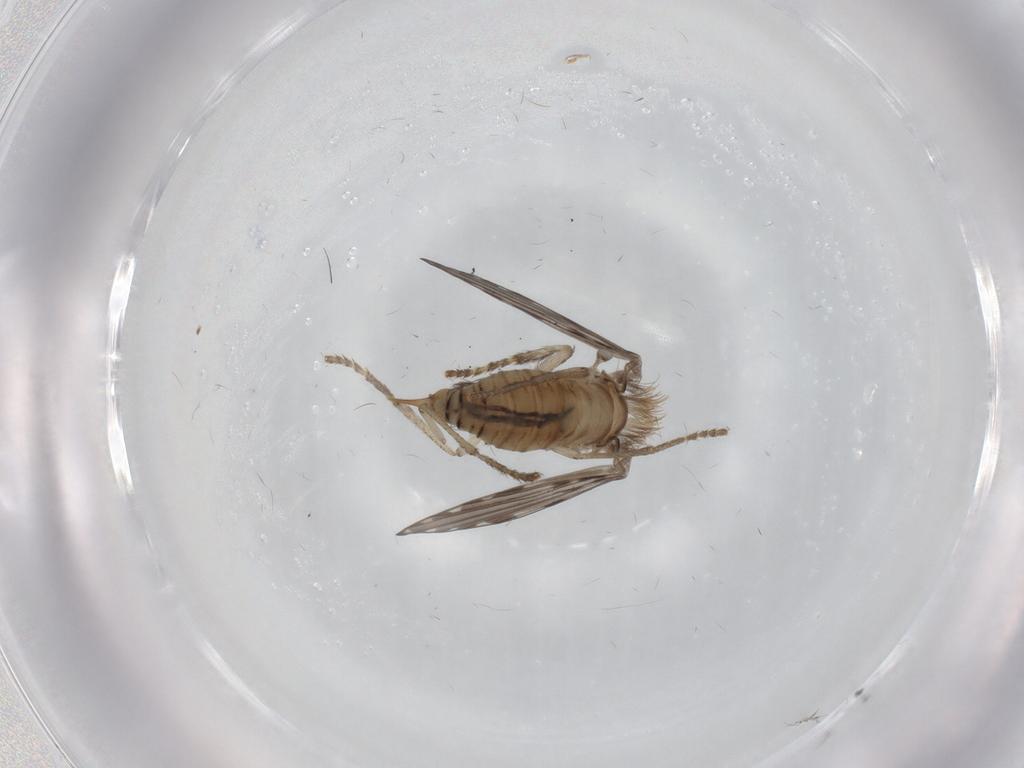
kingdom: Animalia
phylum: Arthropoda
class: Insecta
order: Diptera
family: Psychodidae
